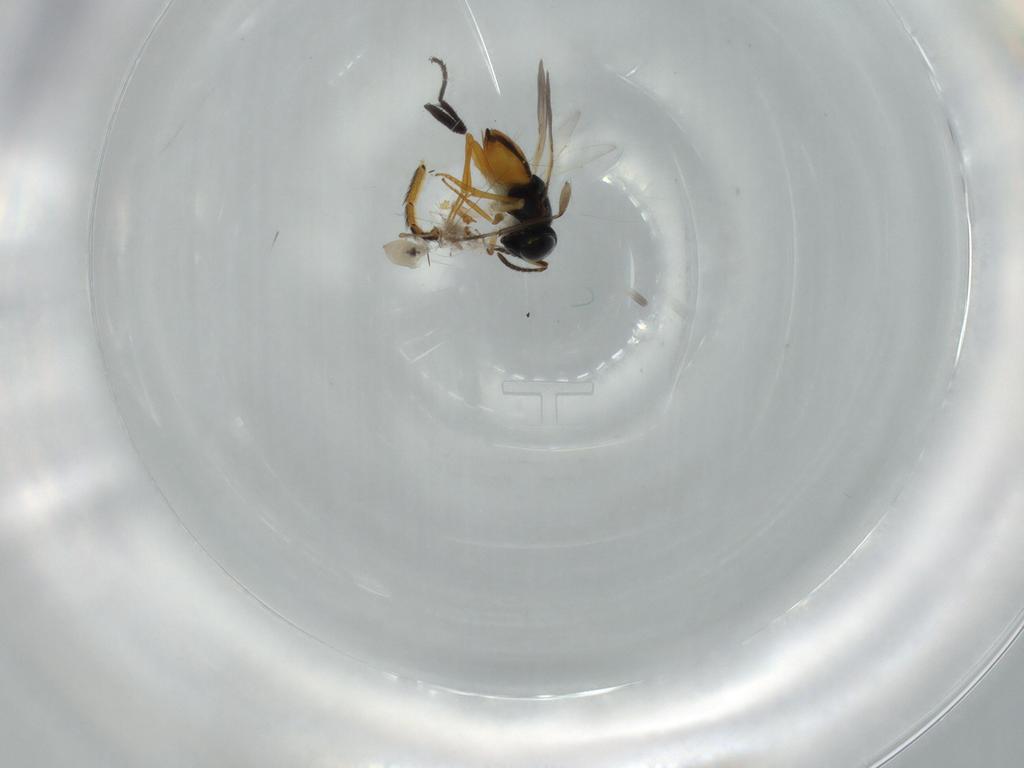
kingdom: Animalia
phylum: Arthropoda
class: Insecta
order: Hymenoptera
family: Pteromalidae
